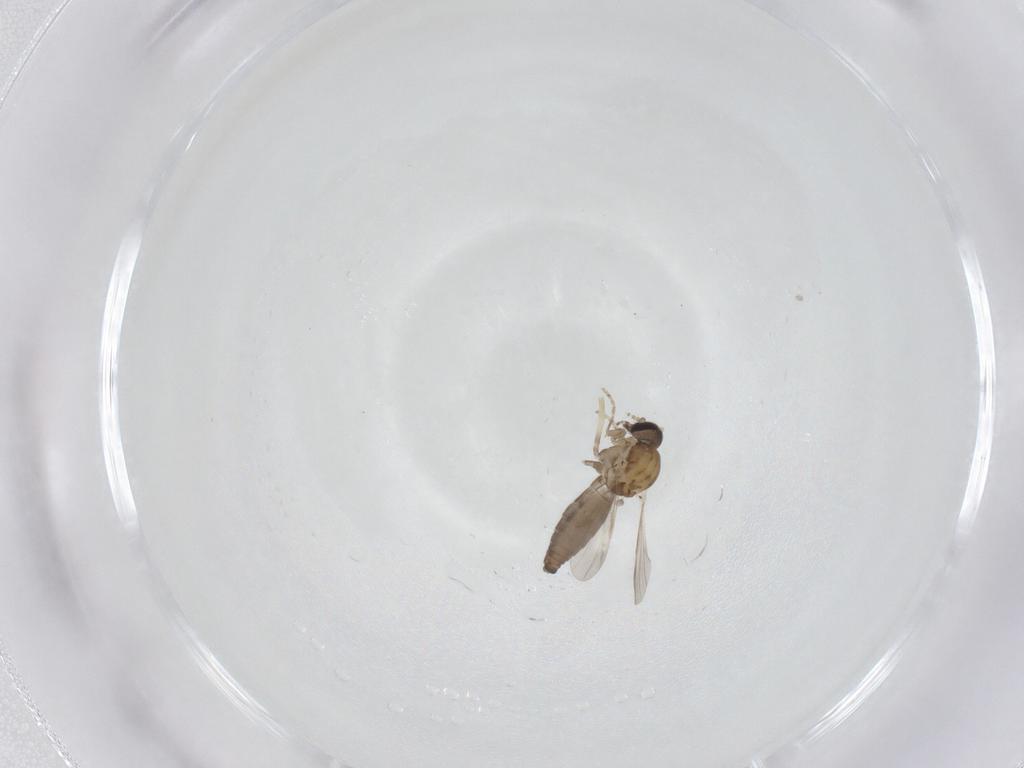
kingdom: Animalia
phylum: Arthropoda
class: Insecta
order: Diptera
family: Ceratopogonidae
